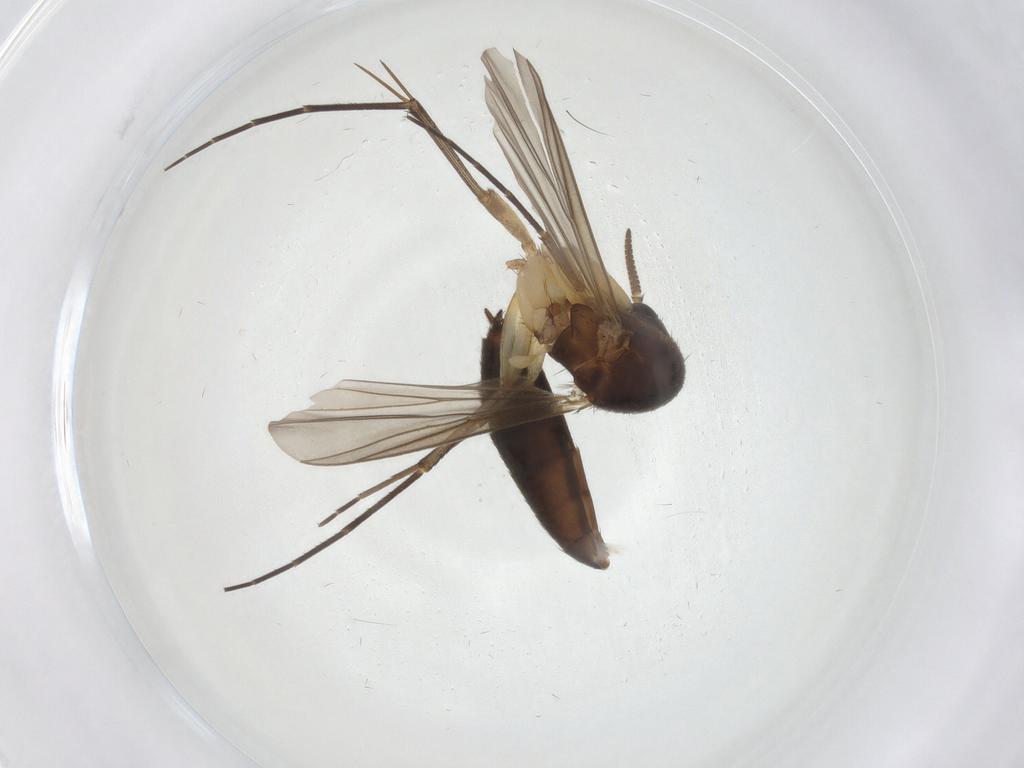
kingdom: Animalia
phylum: Arthropoda
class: Insecta
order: Diptera
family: Mycetophilidae
